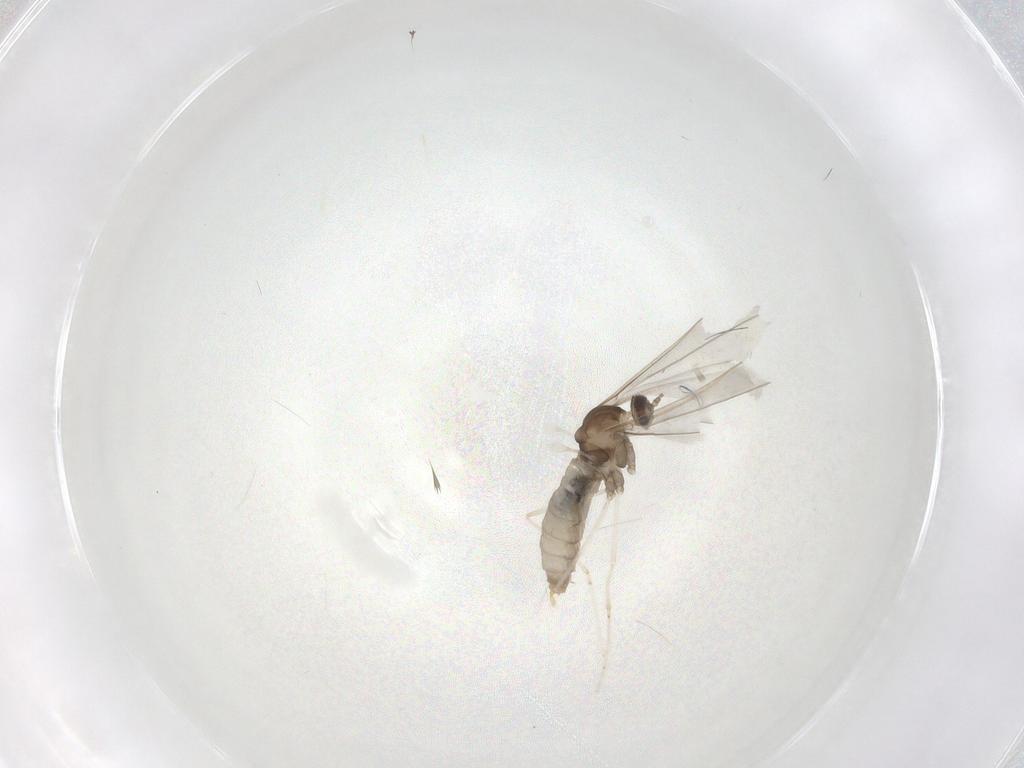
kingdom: Animalia
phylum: Arthropoda
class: Insecta
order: Diptera
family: Cecidomyiidae
